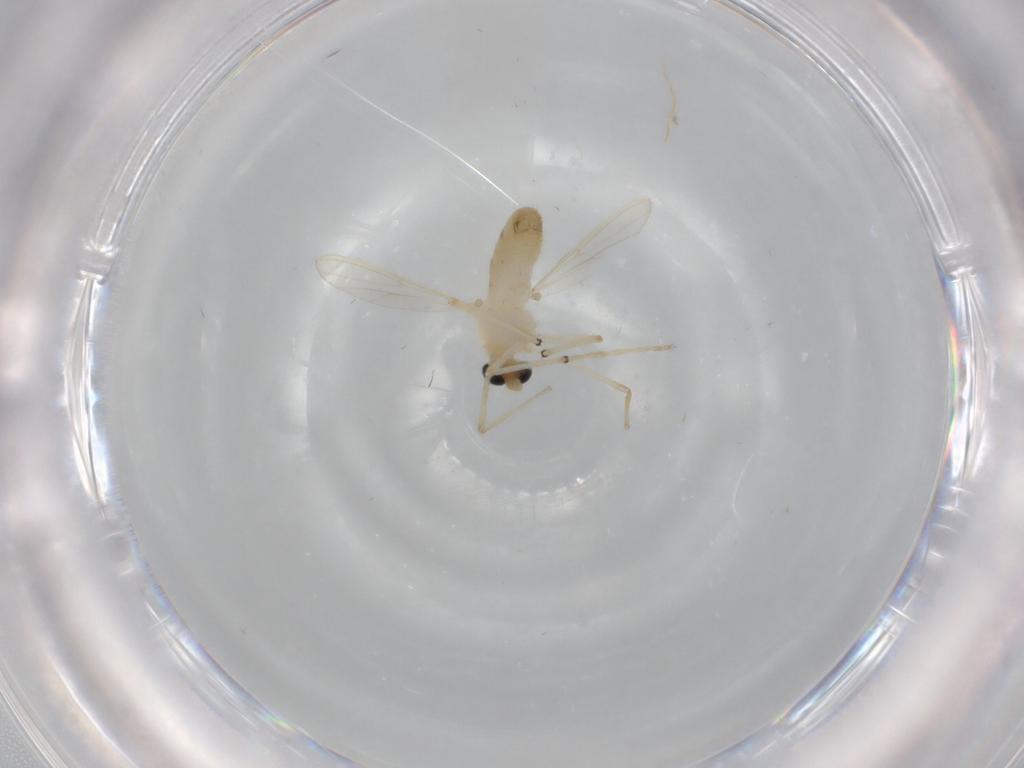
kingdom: Animalia
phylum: Arthropoda
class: Insecta
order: Diptera
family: Chironomidae
